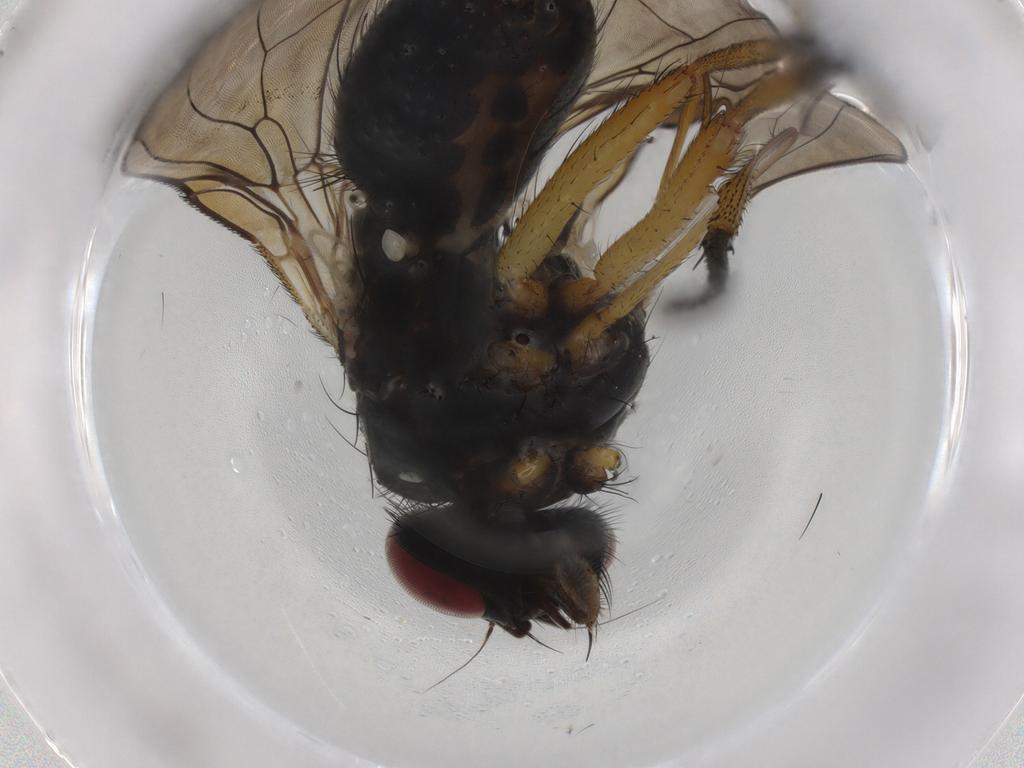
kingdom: Animalia
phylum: Arthropoda
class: Insecta
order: Diptera
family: Muscidae
